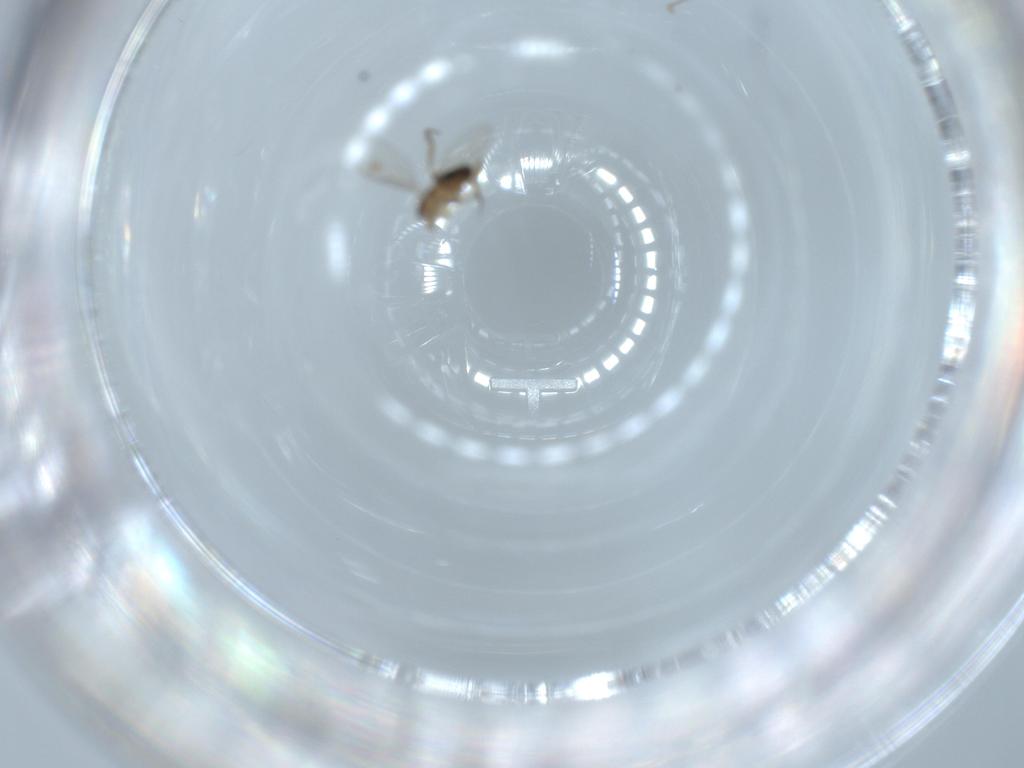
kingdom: Animalia
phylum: Arthropoda
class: Insecta
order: Diptera
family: Phoridae
